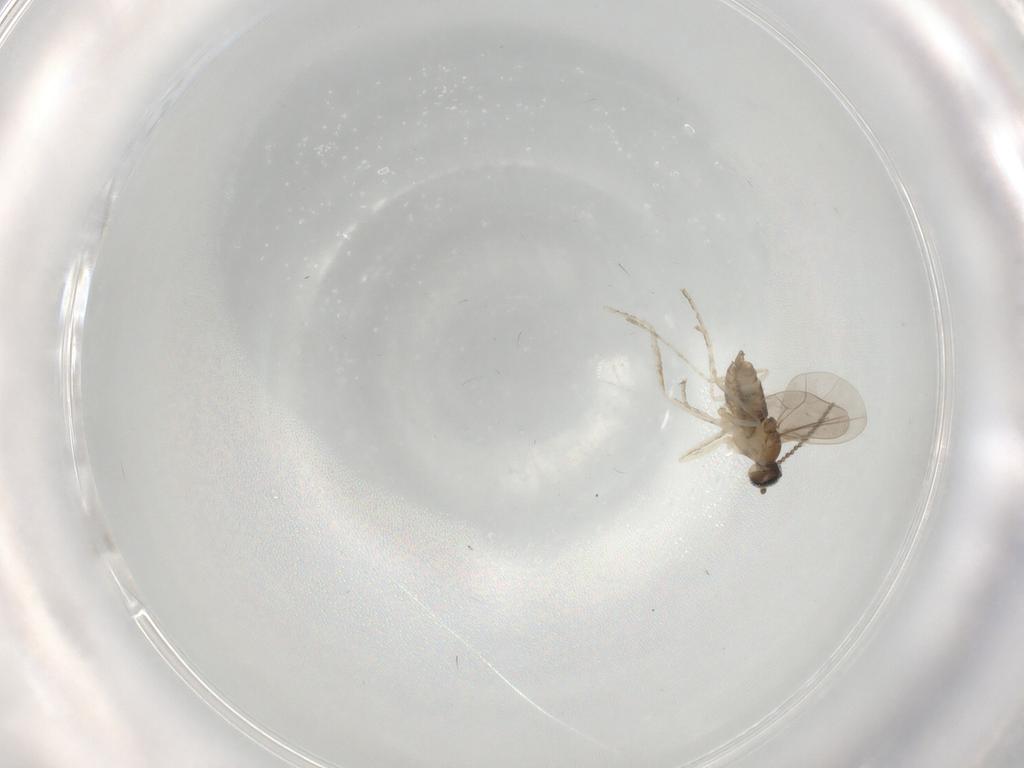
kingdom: Animalia
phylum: Arthropoda
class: Insecta
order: Diptera
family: Cecidomyiidae
